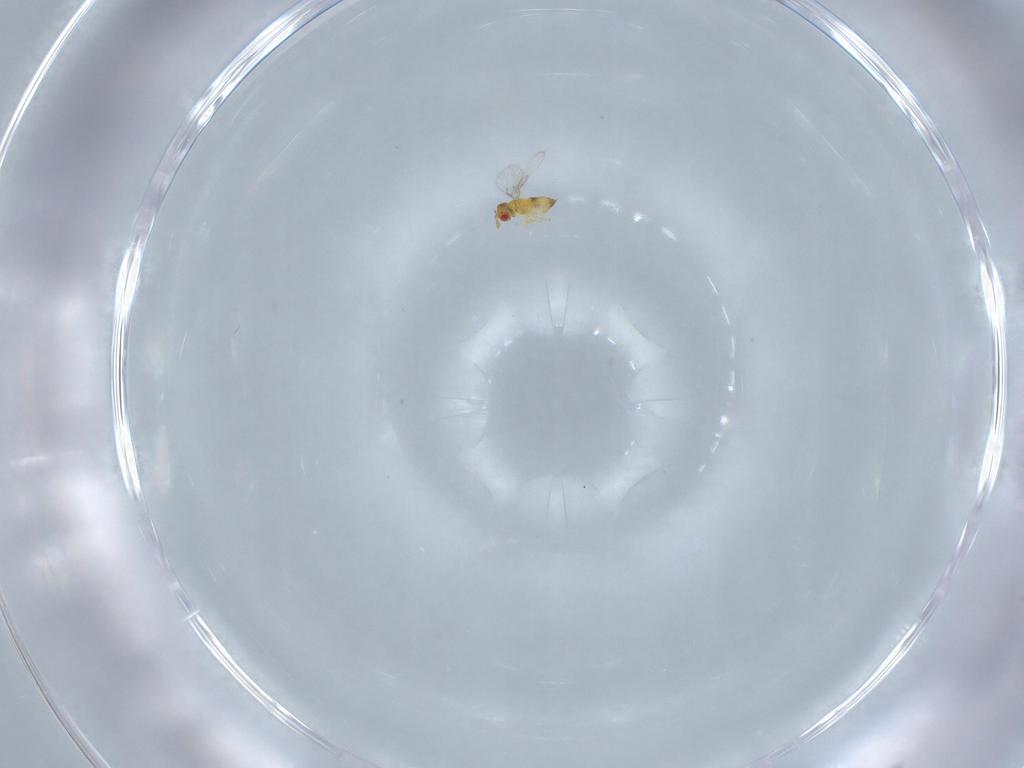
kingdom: Animalia
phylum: Arthropoda
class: Insecta
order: Hymenoptera
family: Trichogrammatidae
